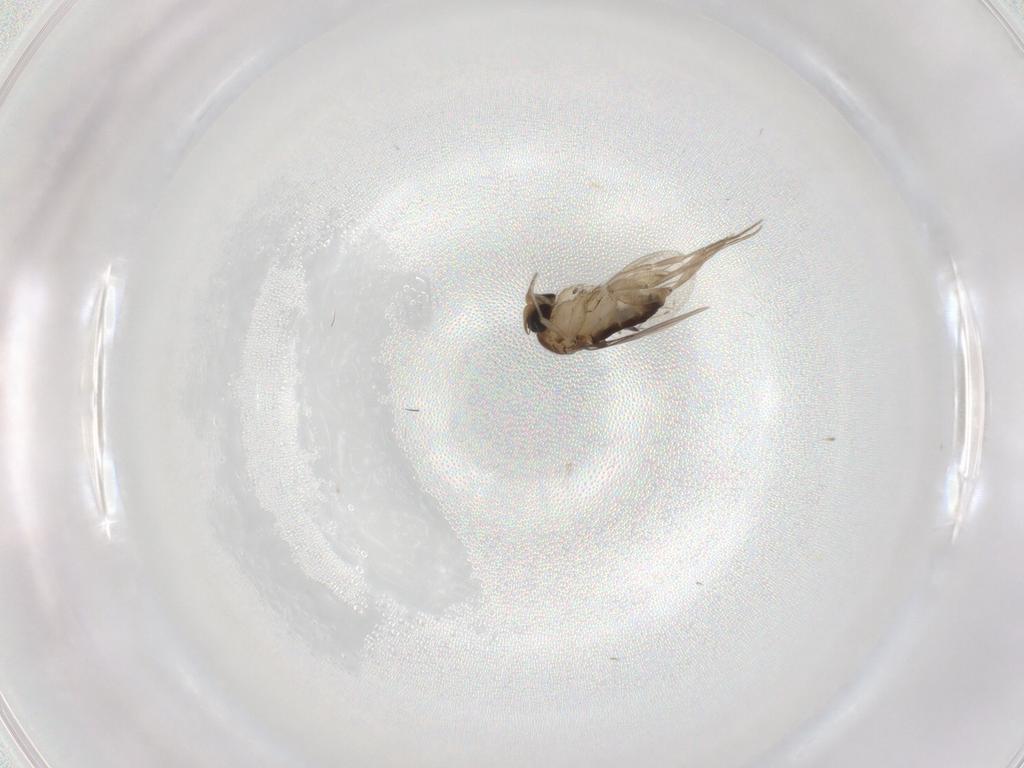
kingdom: Animalia
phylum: Arthropoda
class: Insecta
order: Diptera
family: Phoridae
